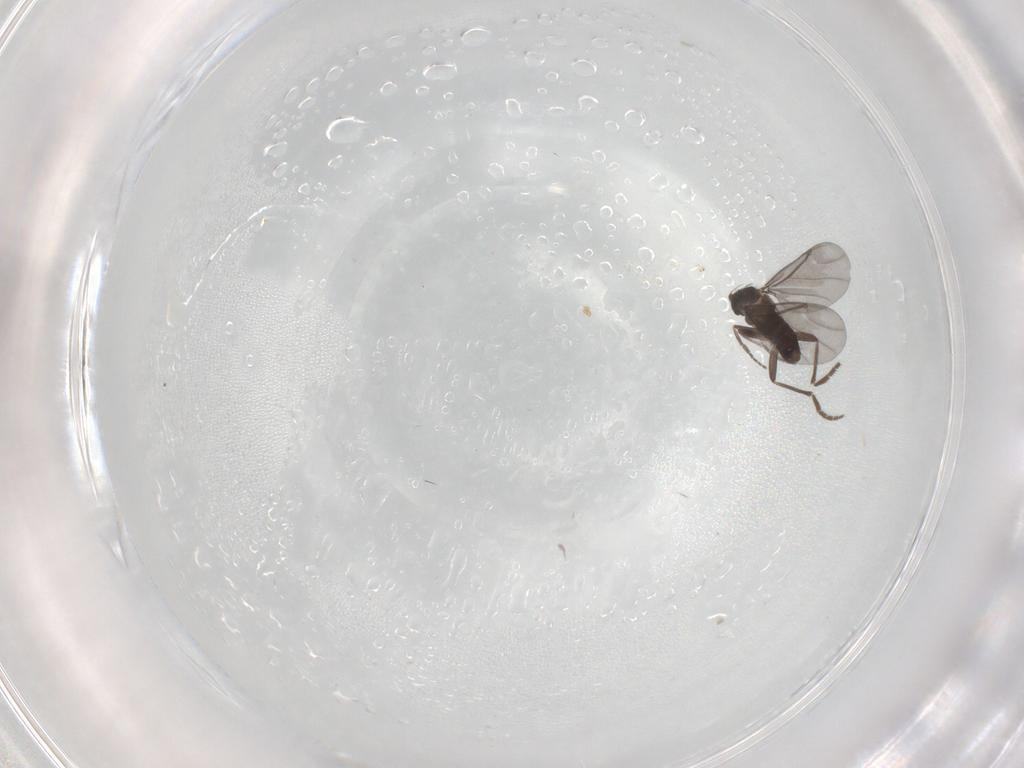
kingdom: Animalia
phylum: Arthropoda
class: Insecta
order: Diptera
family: Phoridae
